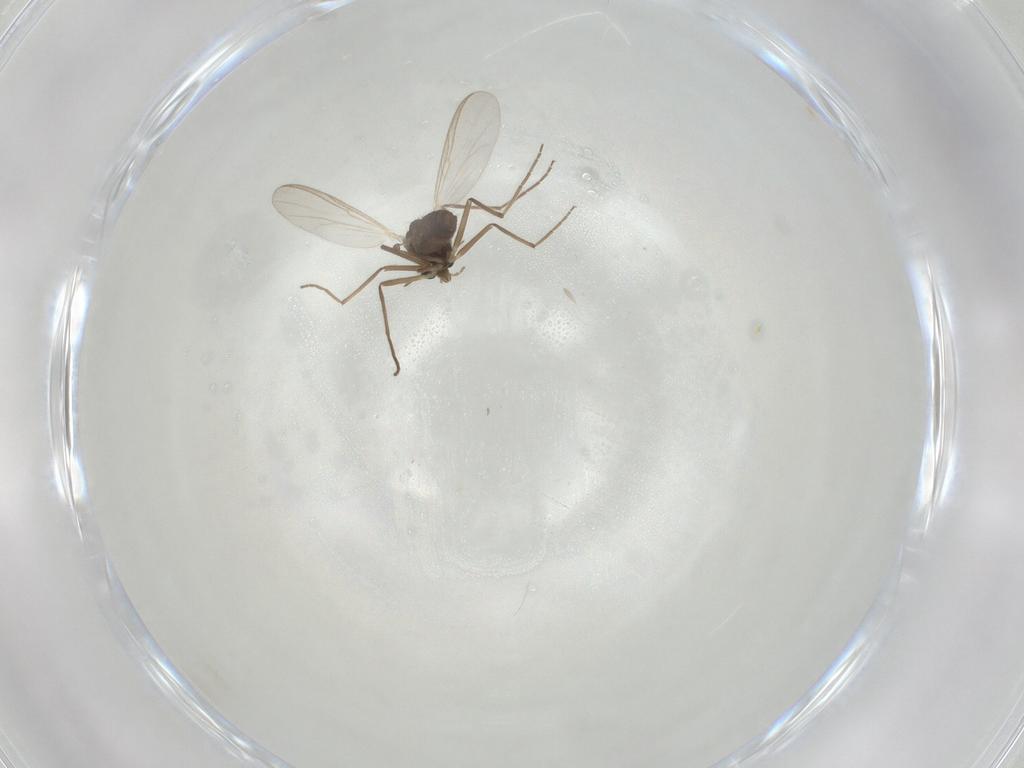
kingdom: Animalia
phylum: Arthropoda
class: Insecta
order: Diptera
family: Chironomidae
